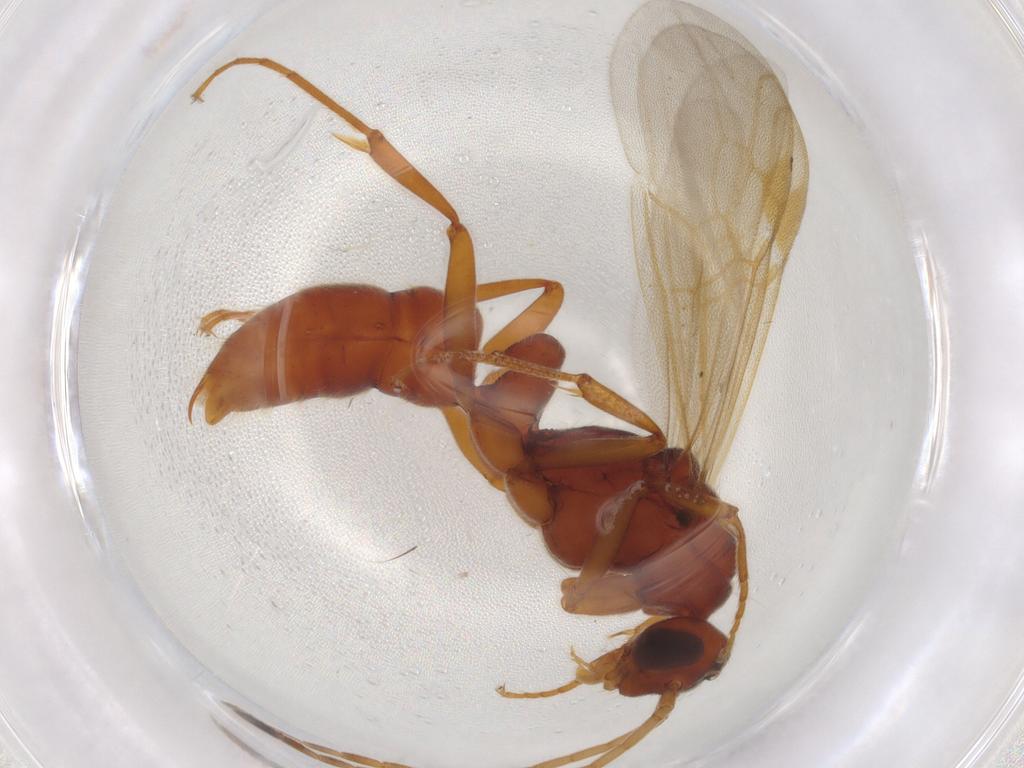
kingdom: Animalia
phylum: Arthropoda
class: Insecta
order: Hymenoptera
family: Formicidae
